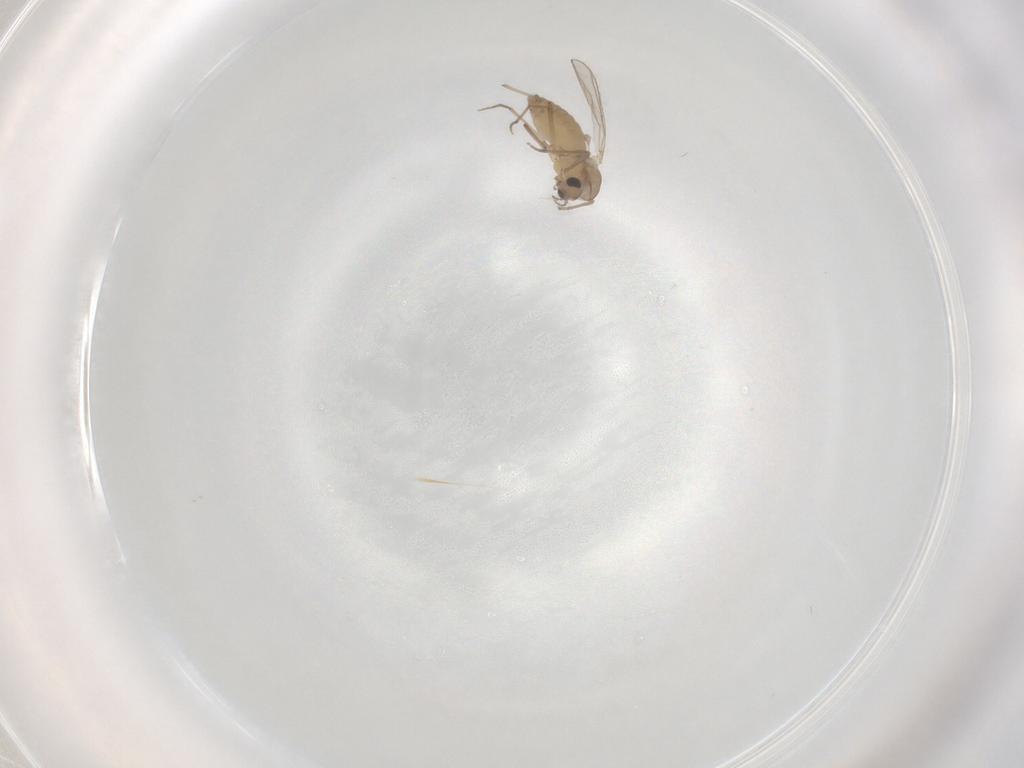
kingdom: Animalia
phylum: Arthropoda
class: Insecta
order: Diptera
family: Chironomidae
